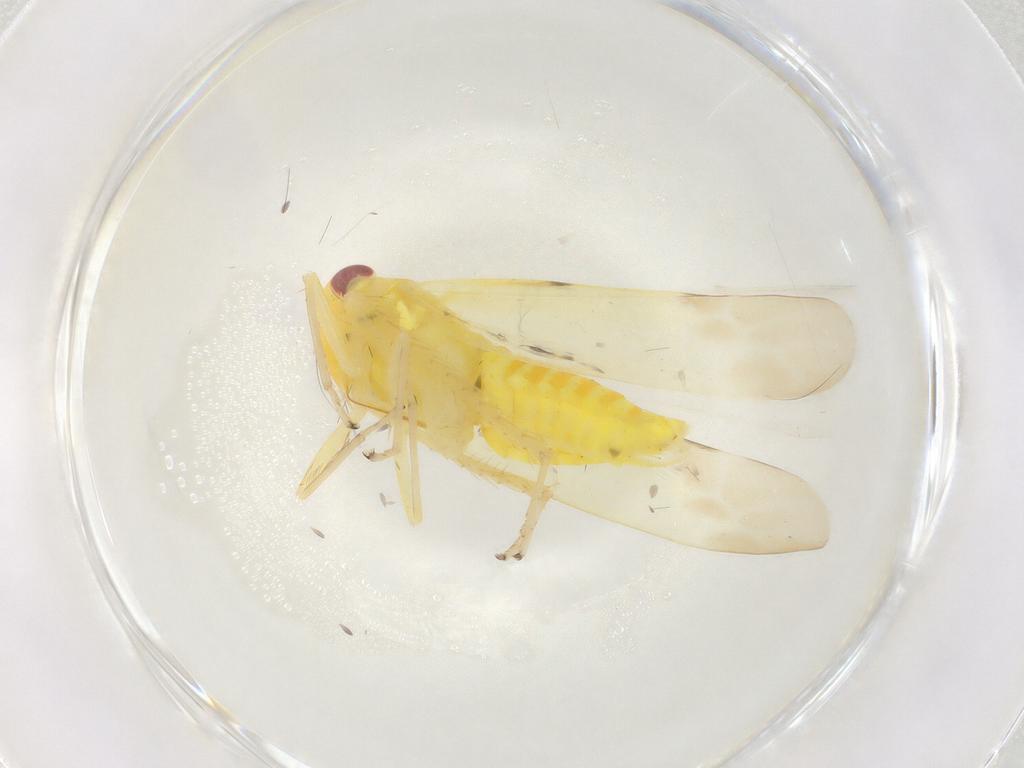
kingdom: Animalia
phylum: Arthropoda
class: Insecta
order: Hemiptera
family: Cicadellidae
